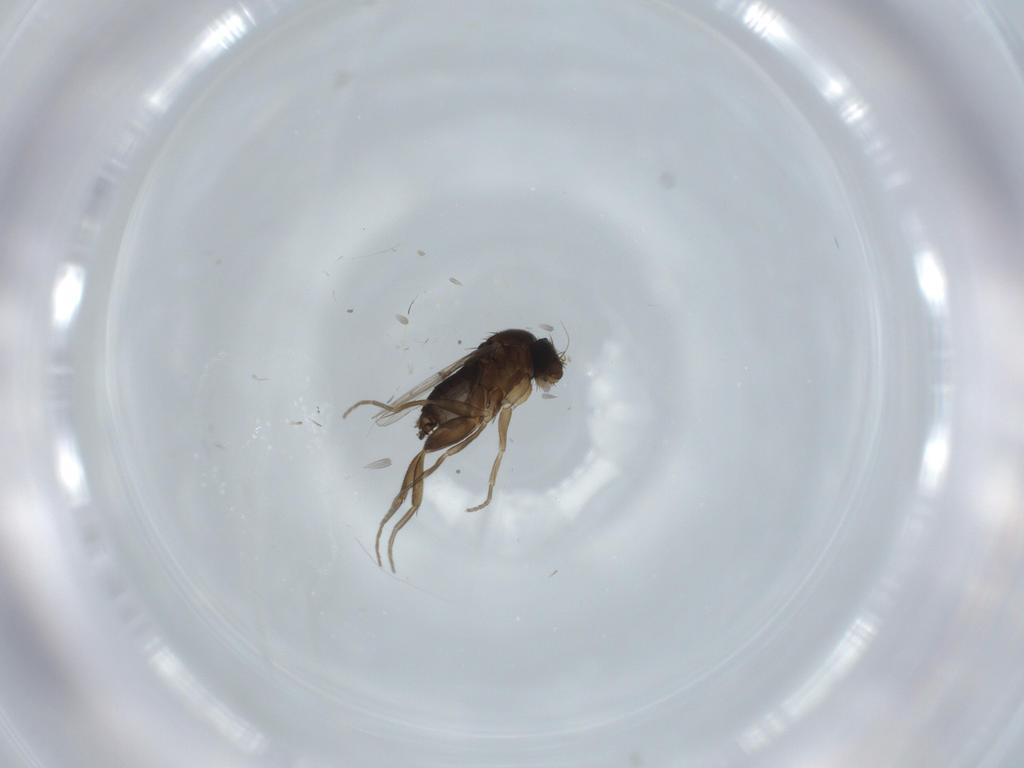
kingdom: Animalia
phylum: Arthropoda
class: Insecta
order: Diptera
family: Phoridae
